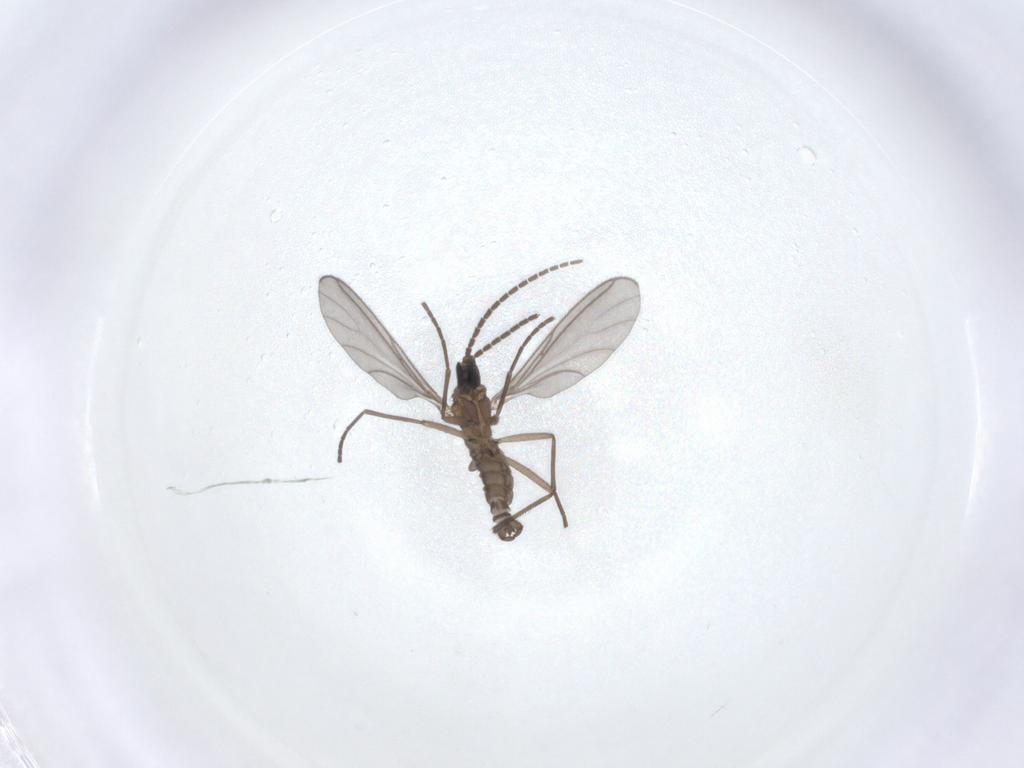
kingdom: Animalia
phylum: Arthropoda
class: Insecta
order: Diptera
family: Sciaridae
